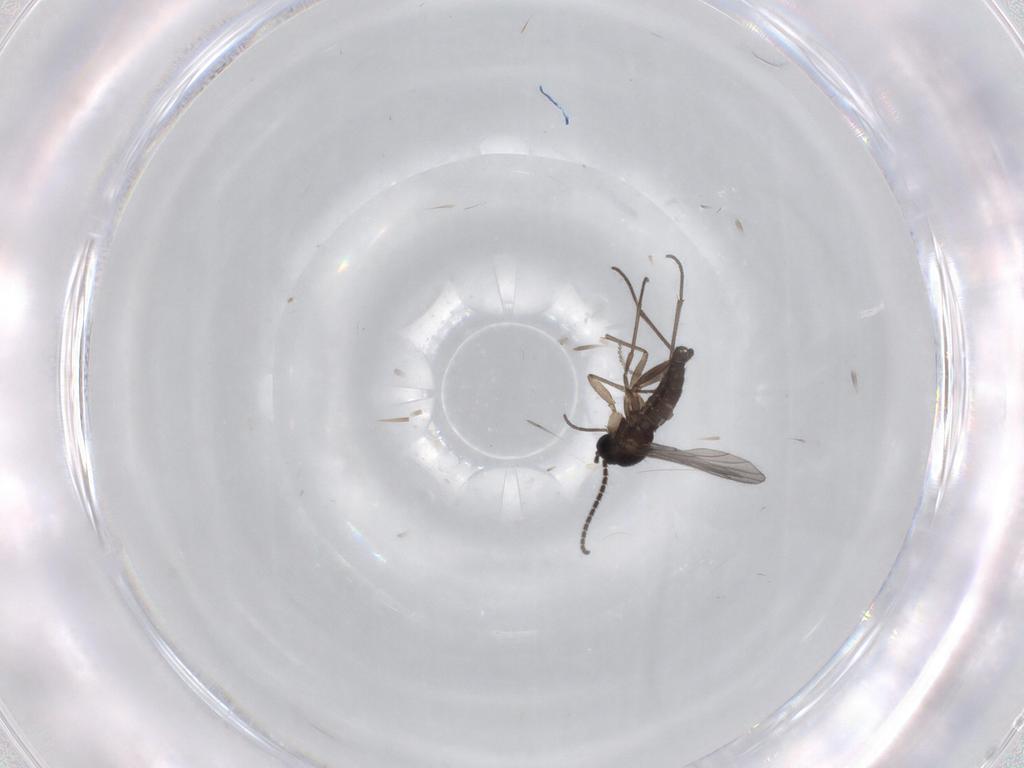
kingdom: Animalia
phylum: Arthropoda
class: Insecta
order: Diptera
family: Sciaridae
